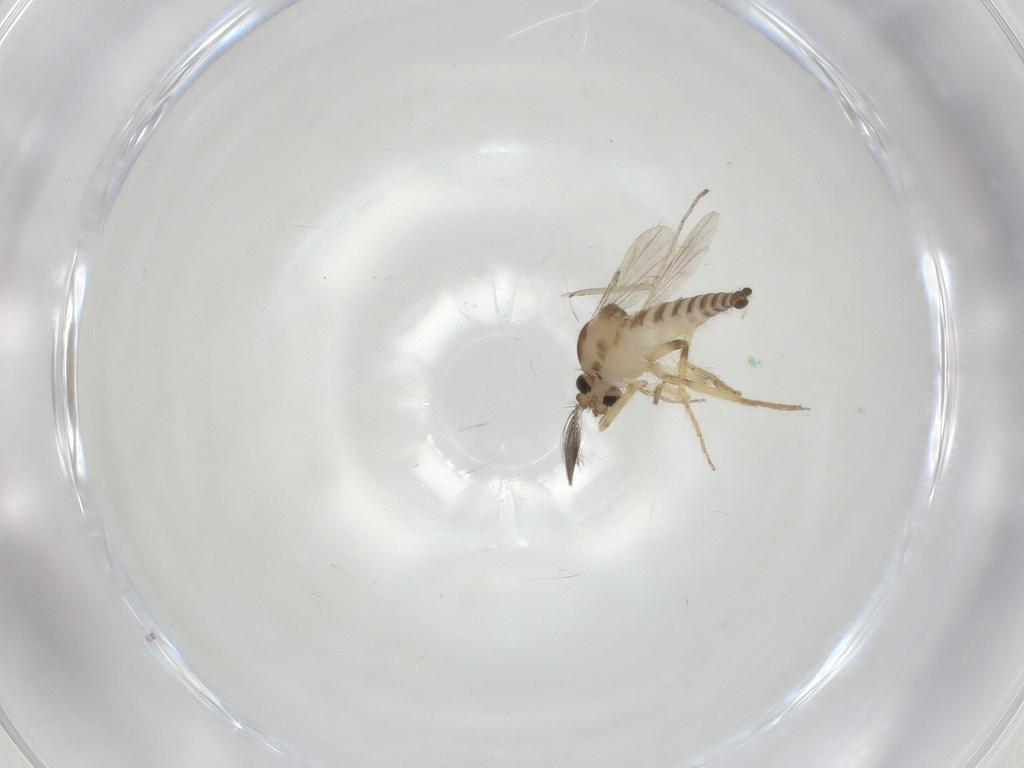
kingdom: Animalia
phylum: Arthropoda
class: Insecta
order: Diptera
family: Chironomidae
